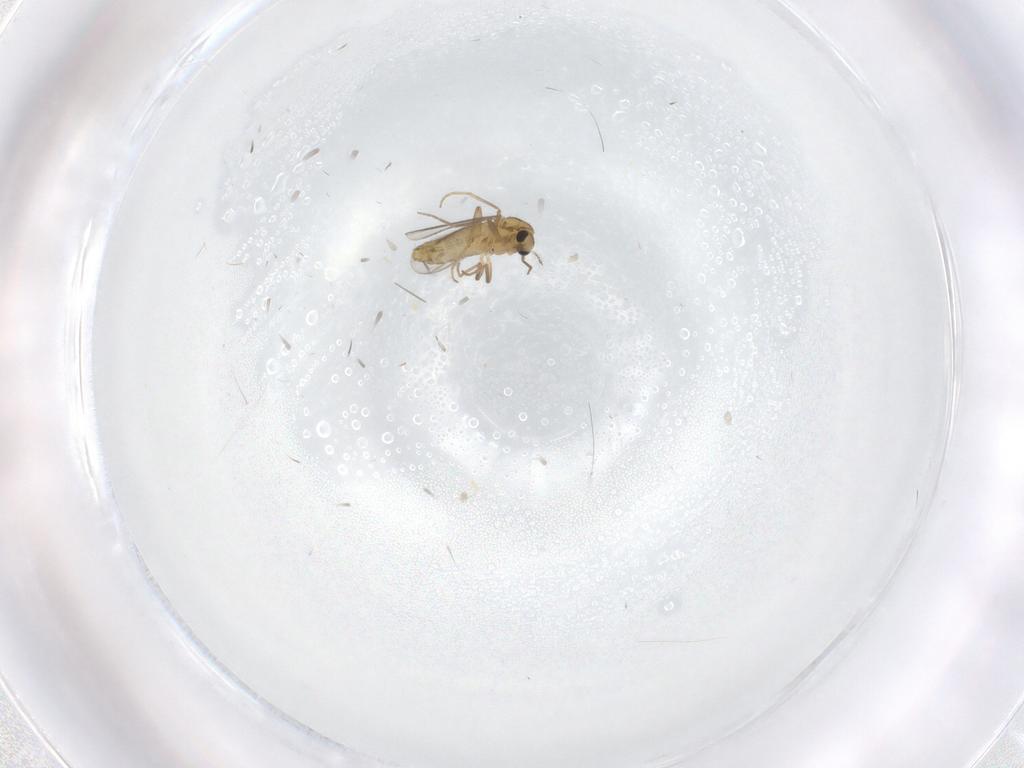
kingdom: Animalia
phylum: Arthropoda
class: Insecta
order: Diptera
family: Chironomidae
